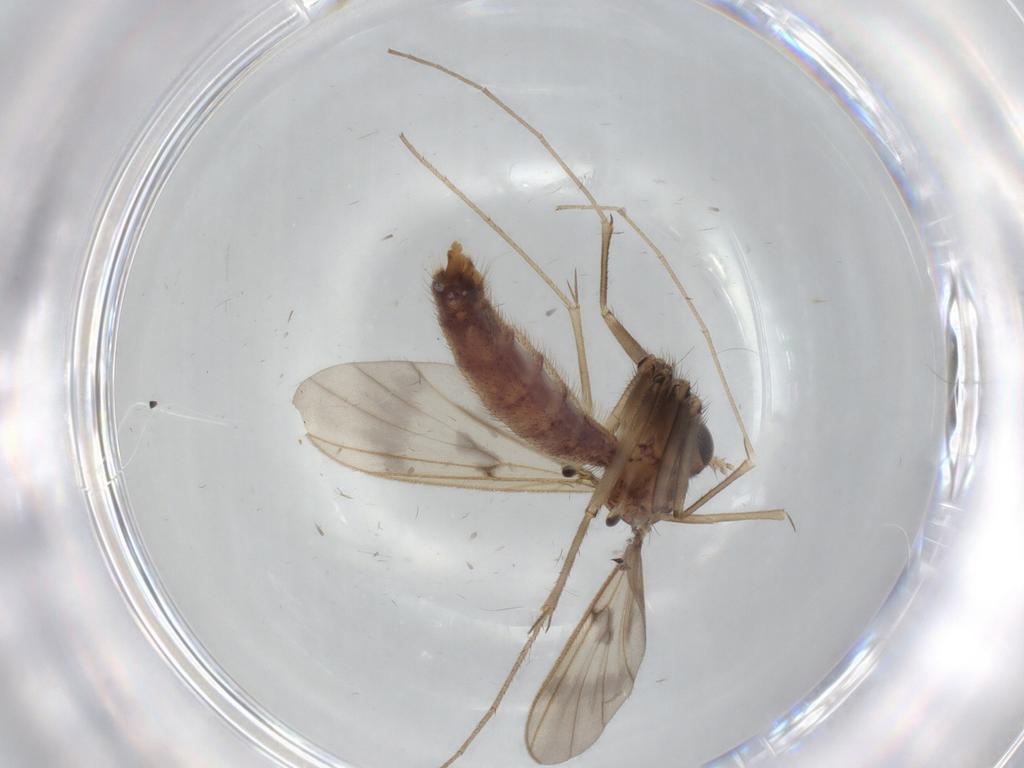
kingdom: Animalia
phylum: Arthropoda
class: Insecta
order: Diptera
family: Mycetophilidae
